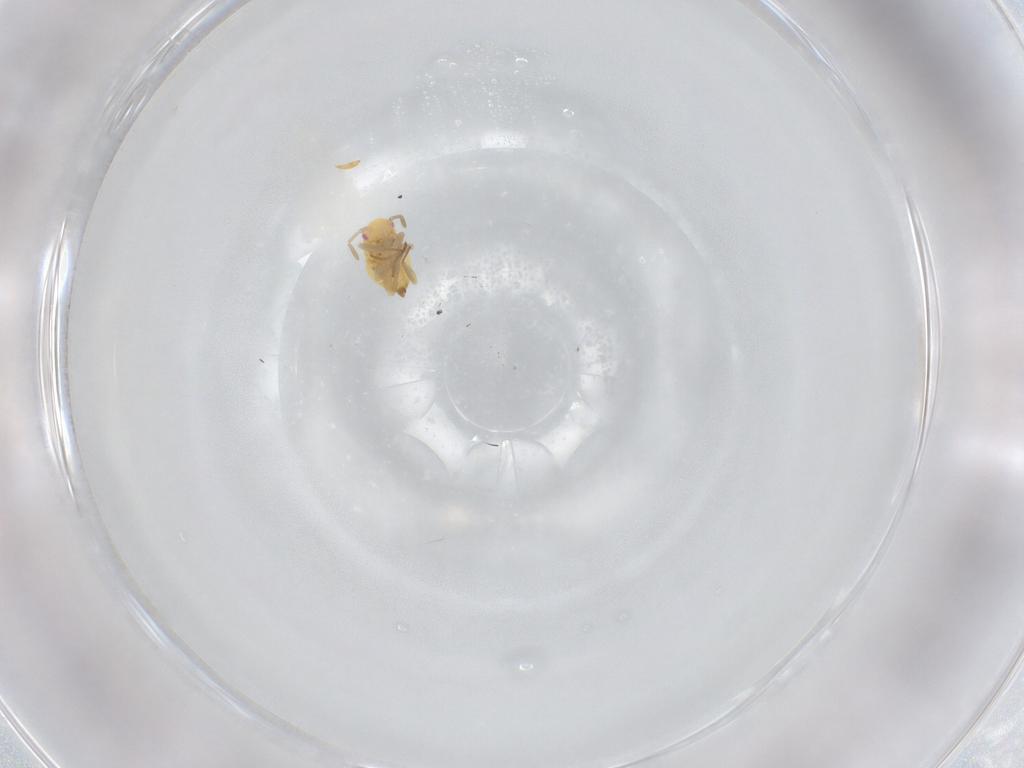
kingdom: Animalia
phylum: Arthropoda
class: Insecta
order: Hemiptera
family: Miridae
